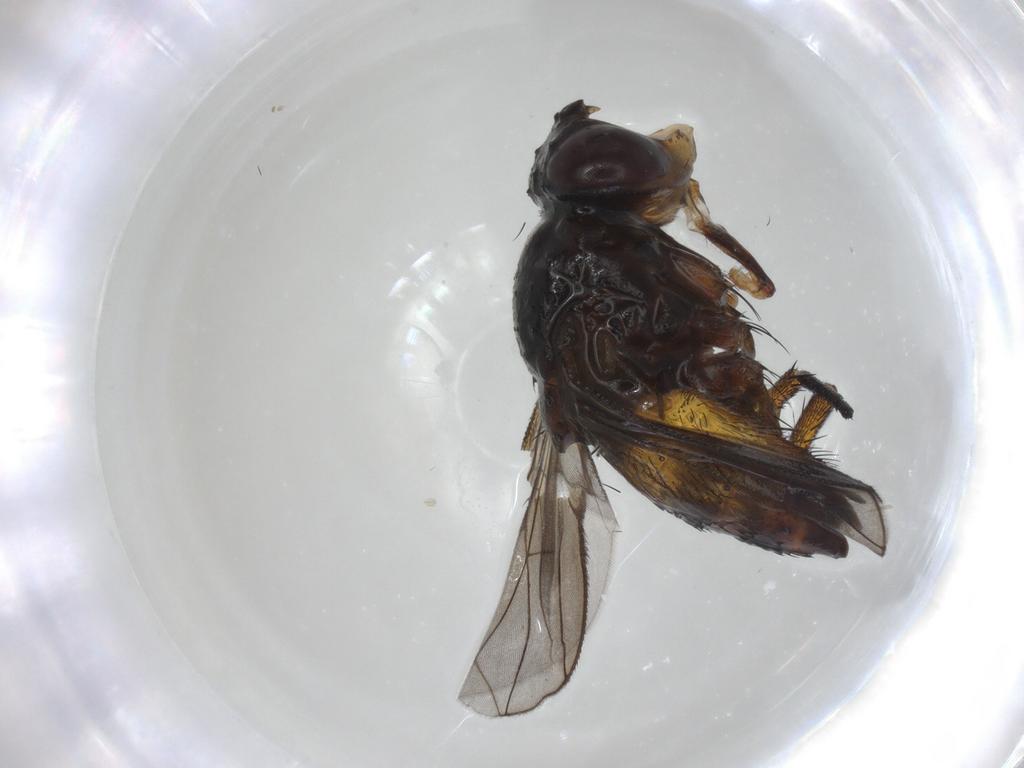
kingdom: Animalia
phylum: Arthropoda
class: Insecta
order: Diptera
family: Tachinidae
